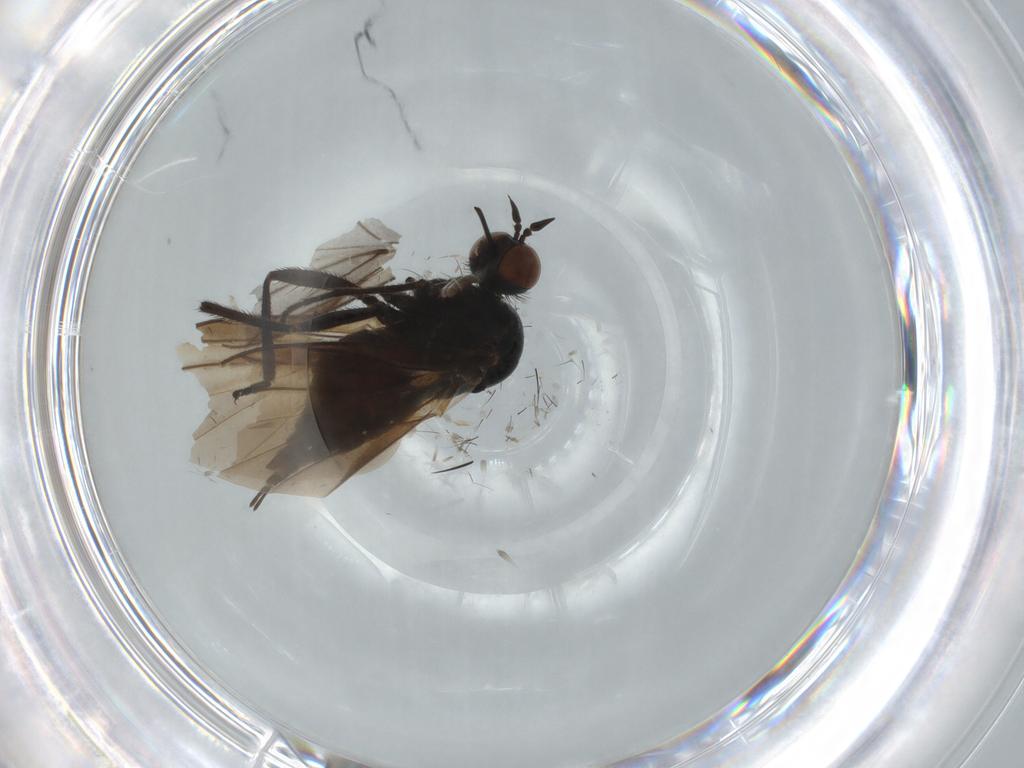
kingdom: Animalia
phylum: Arthropoda
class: Insecta
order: Diptera
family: Empididae
